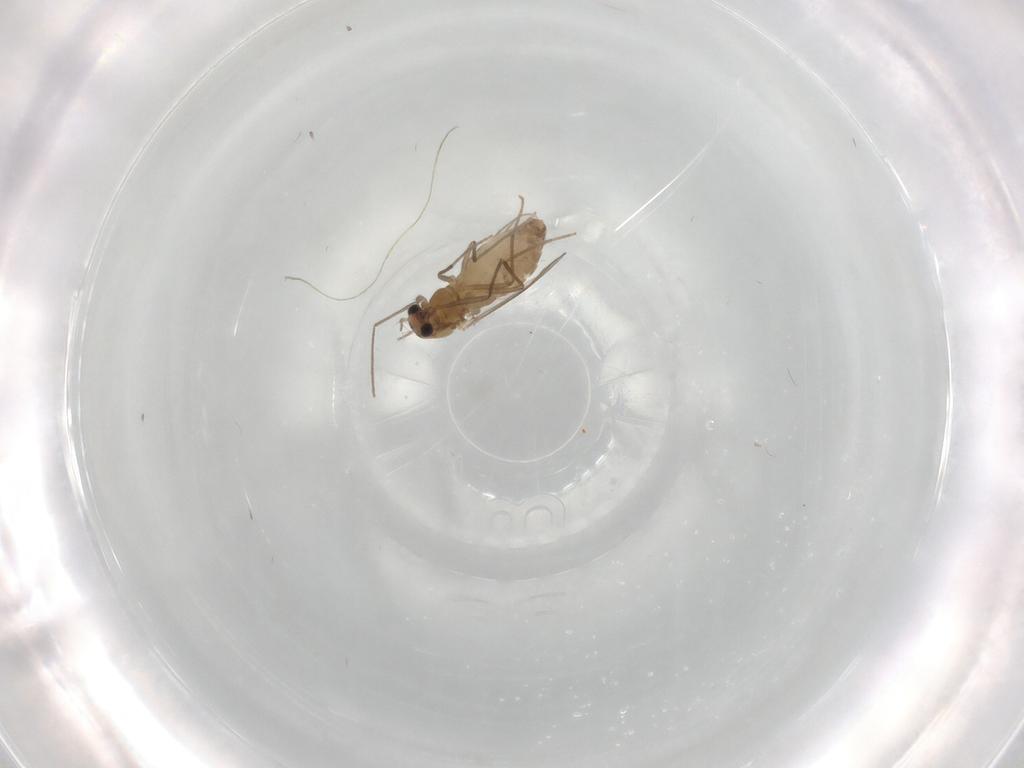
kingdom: Animalia
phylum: Arthropoda
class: Insecta
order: Diptera
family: Chironomidae
